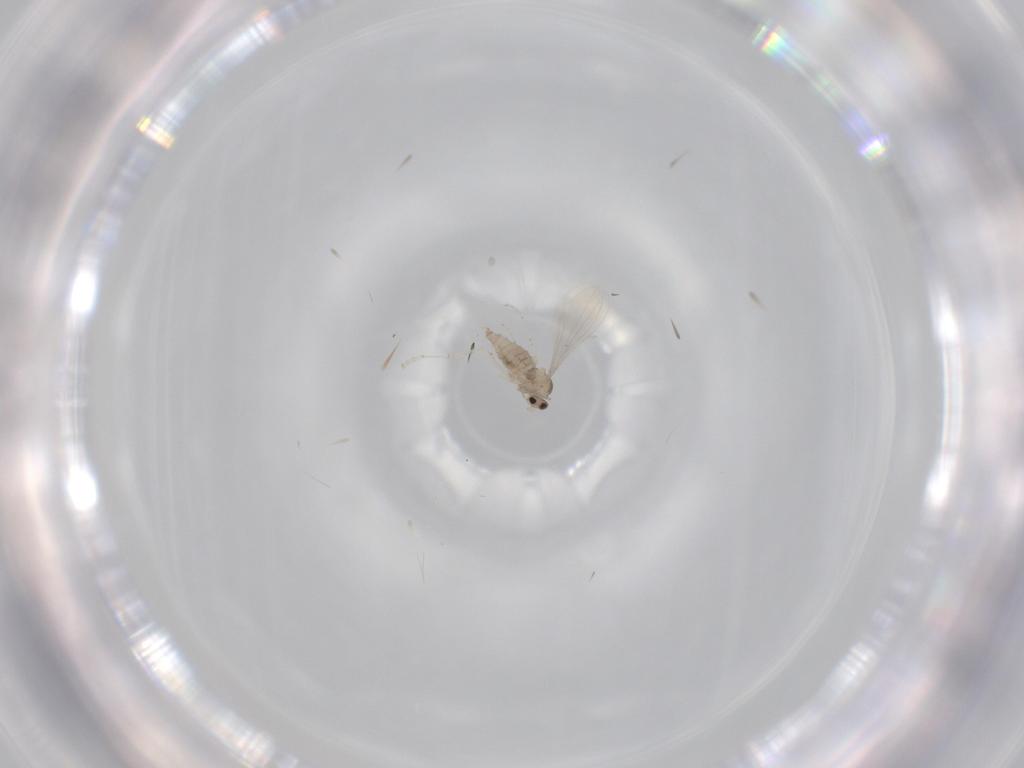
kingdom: Animalia
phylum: Arthropoda
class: Insecta
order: Diptera
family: Cecidomyiidae
